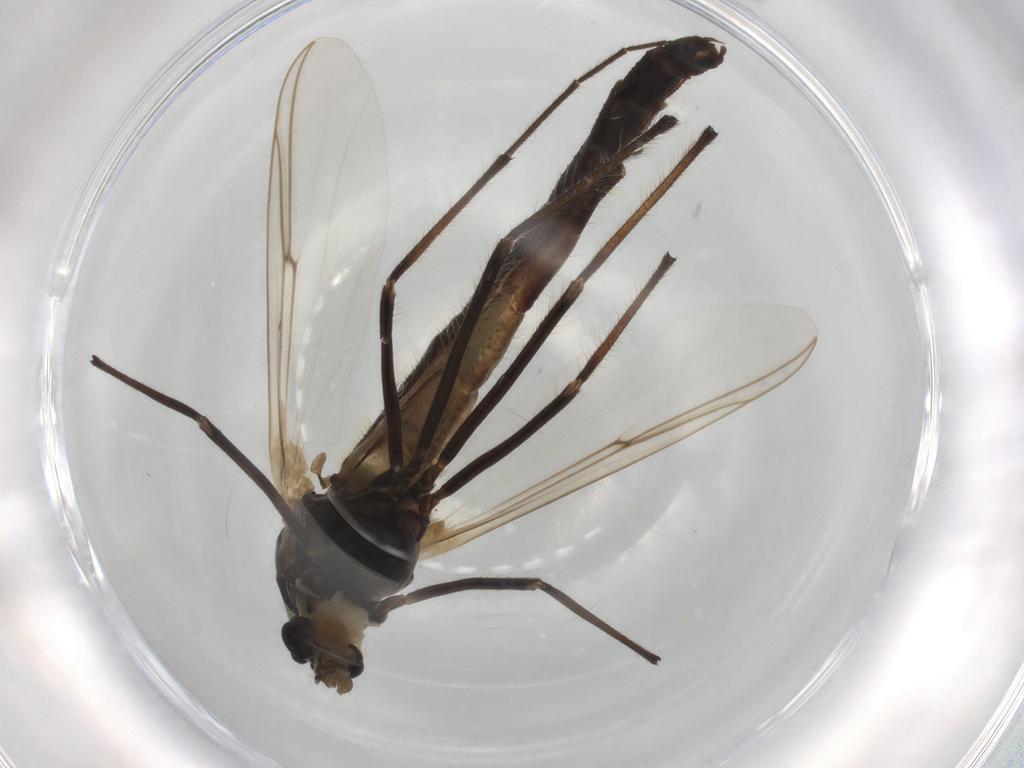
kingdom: Animalia
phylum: Arthropoda
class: Insecta
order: Diptera
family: Chironomidae
